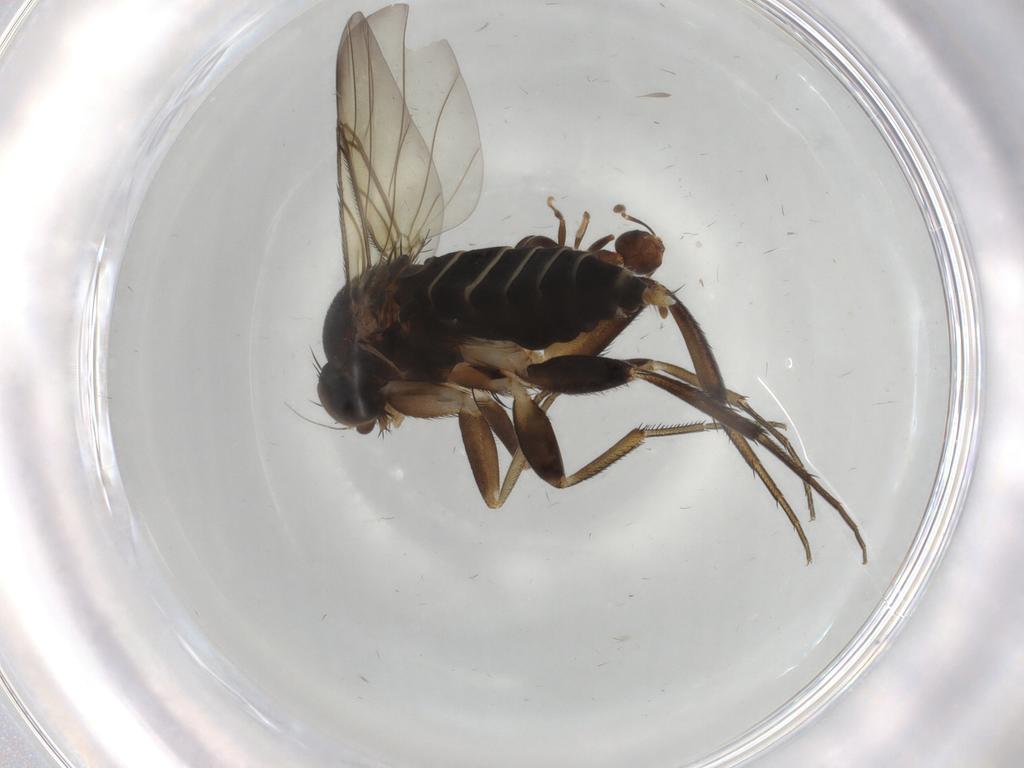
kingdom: Animalia
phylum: Arthropoda
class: Insecta
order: Diptera
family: Phoridae
